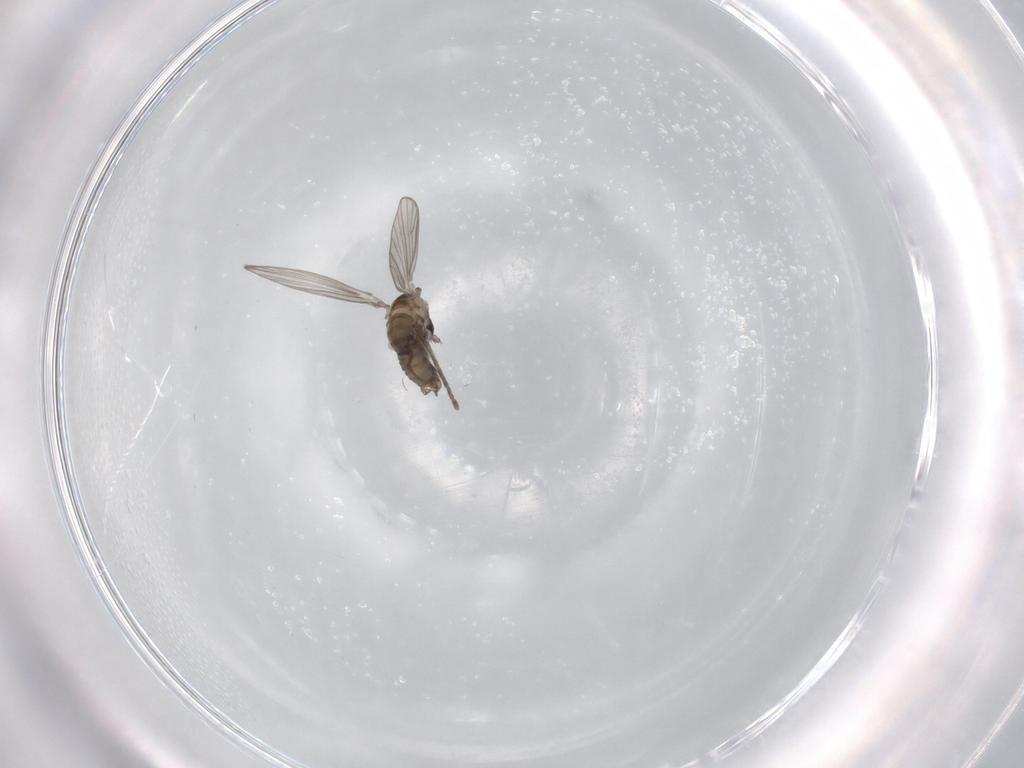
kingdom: Animalia
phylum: Arthropoda
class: Insecta
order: Diptera
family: Psychodidae
